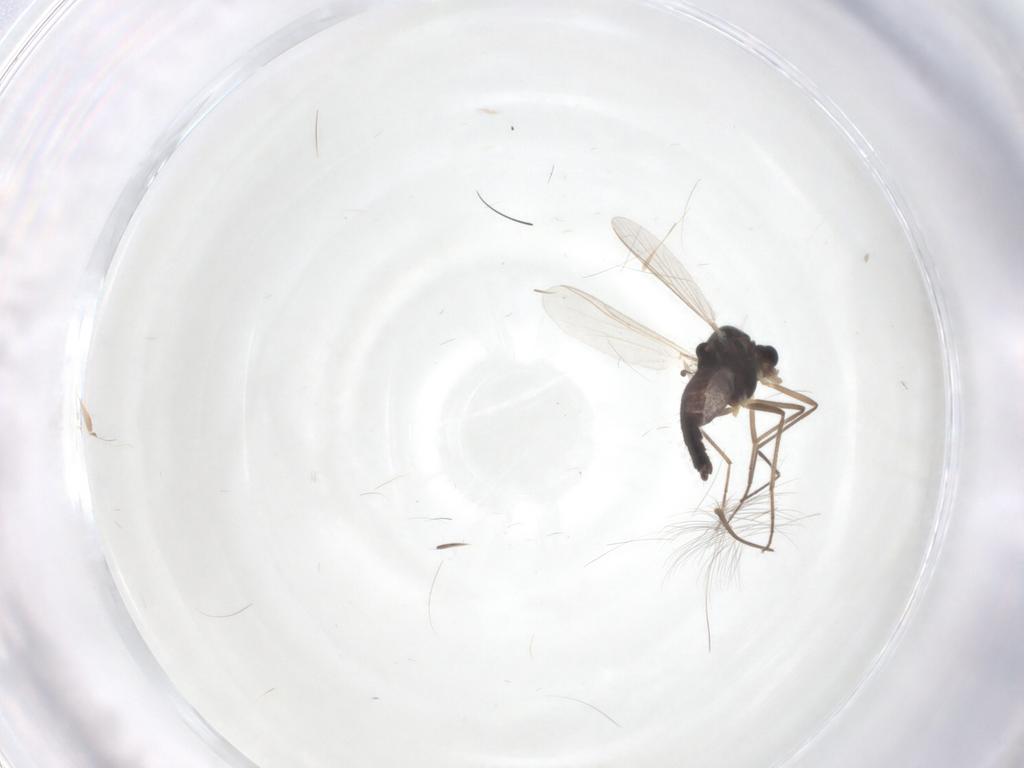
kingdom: Animalia
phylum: Arthropoda
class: Insecta
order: Diptera
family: Chironomidae
